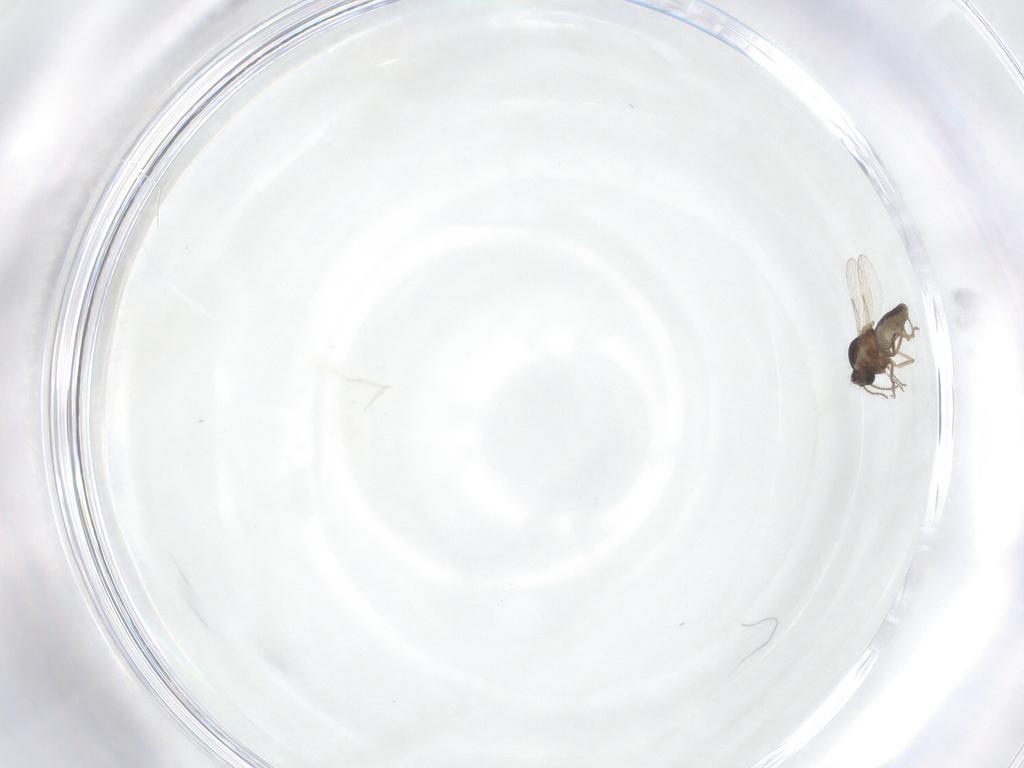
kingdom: Animalia
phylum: Arthropoda
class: Insecta
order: Diptera
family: Ceratopogonidae
